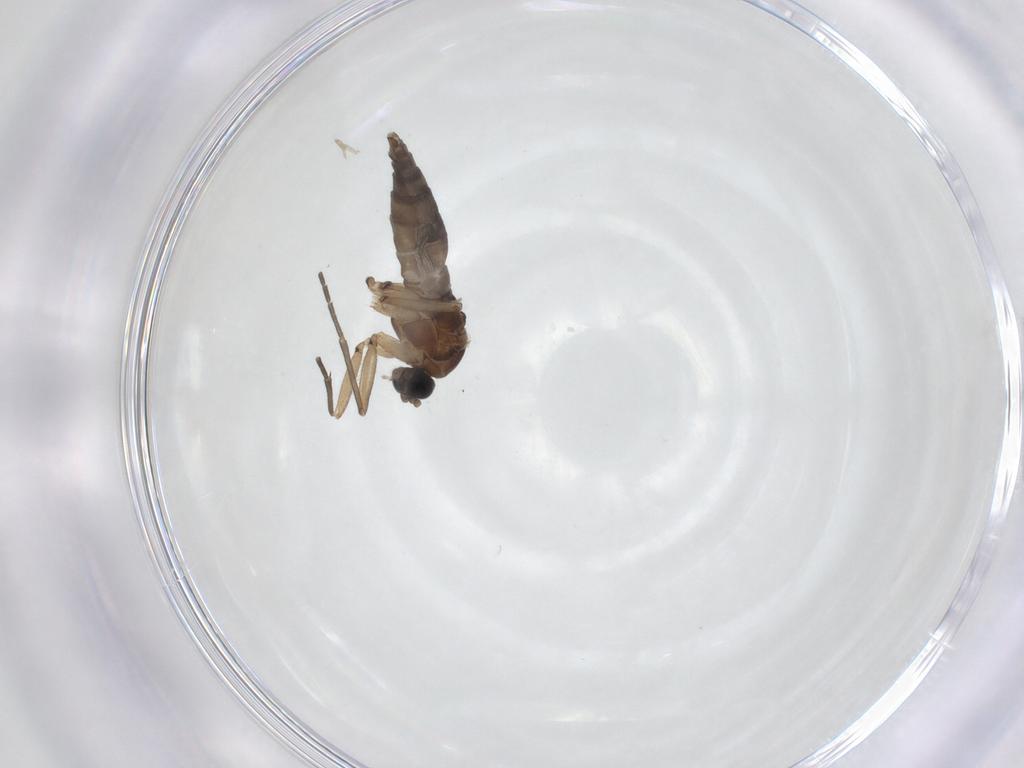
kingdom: Animalia
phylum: Arthropoda
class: Insecta
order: Diptera
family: Sciaridae
